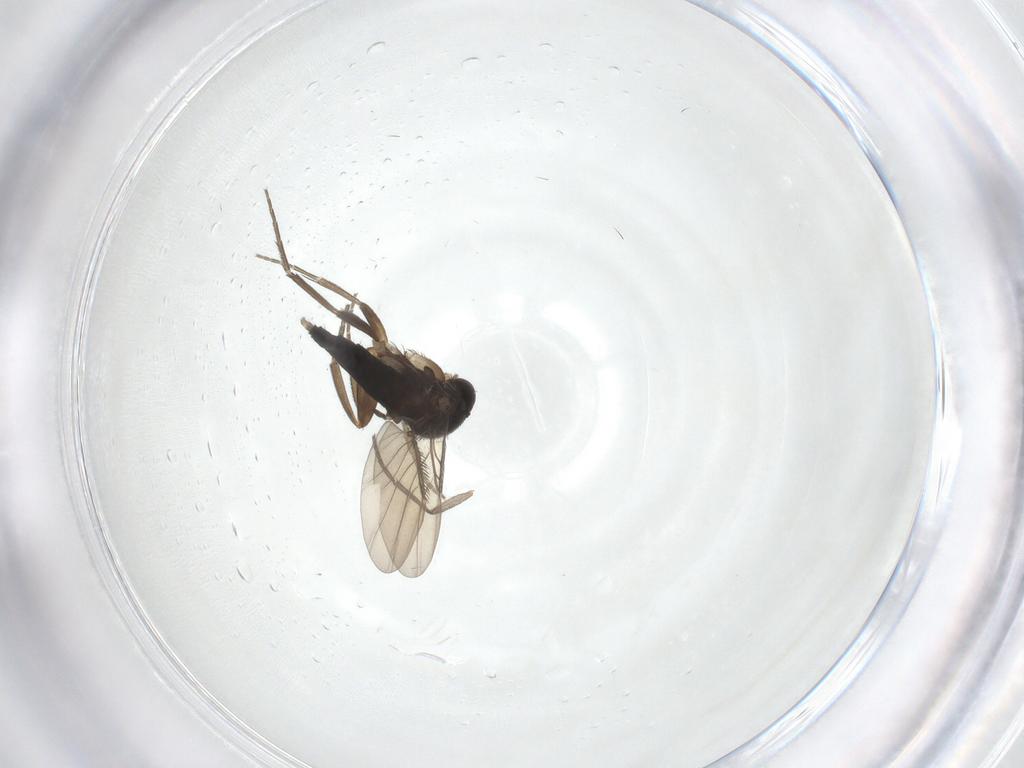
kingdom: Animalia
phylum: Arthropoda
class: Insecta
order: Diptera
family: Phoridae
